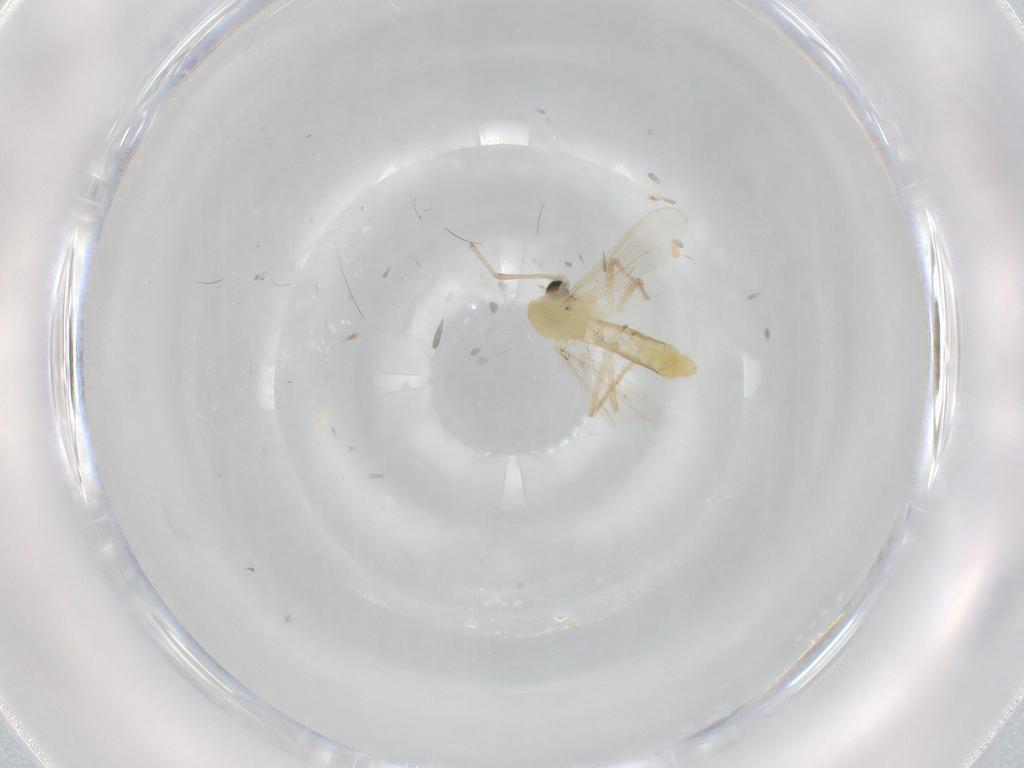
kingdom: Animalia
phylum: Arthropoda
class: Insecta
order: Diptera
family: Chironomidae
